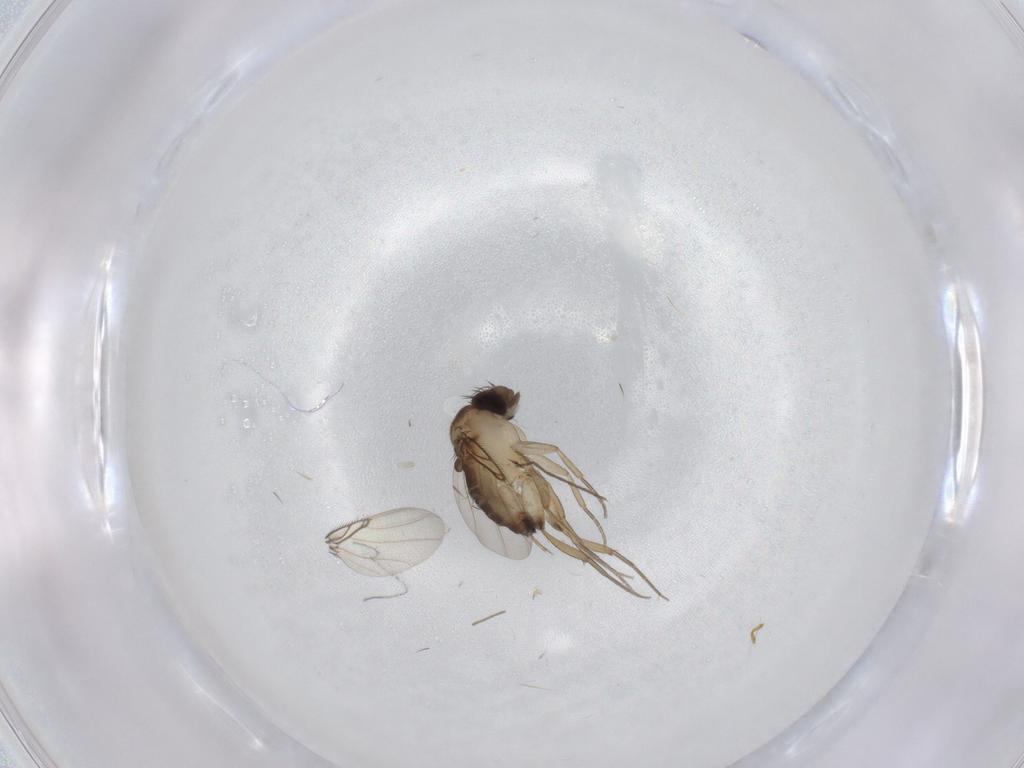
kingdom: Animalia
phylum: Arthropoda
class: Insecta
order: Diptera
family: Phoridae
